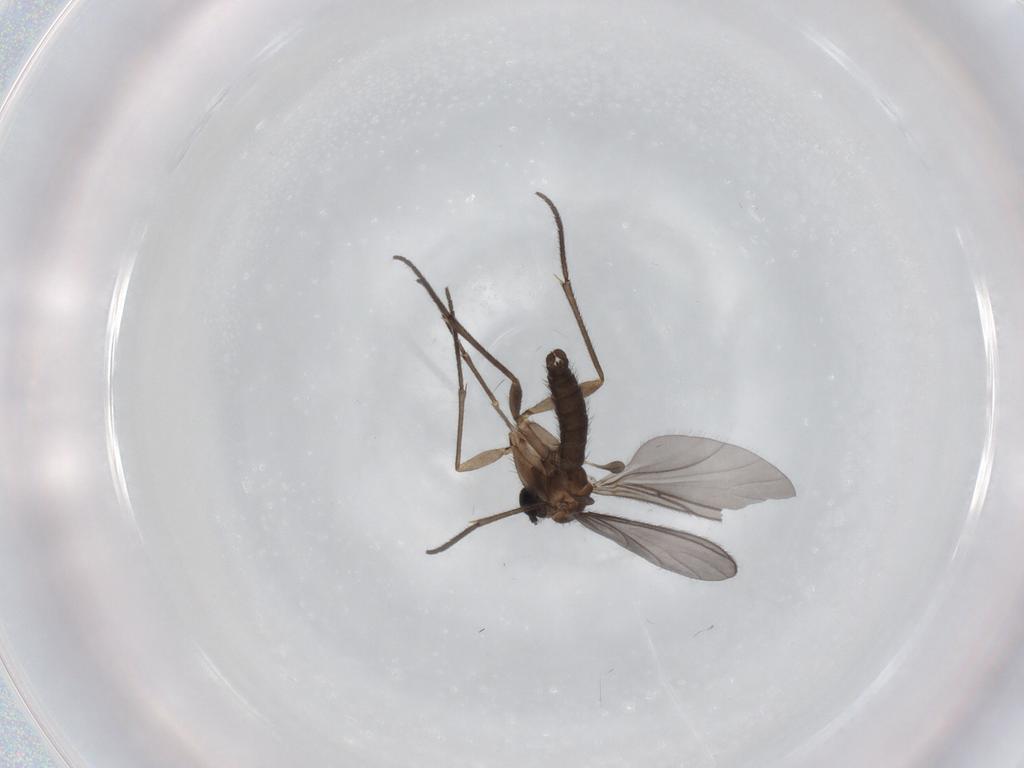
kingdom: Animalia
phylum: Arthropoda
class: Insecta
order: Diptera
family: Sciaridae
